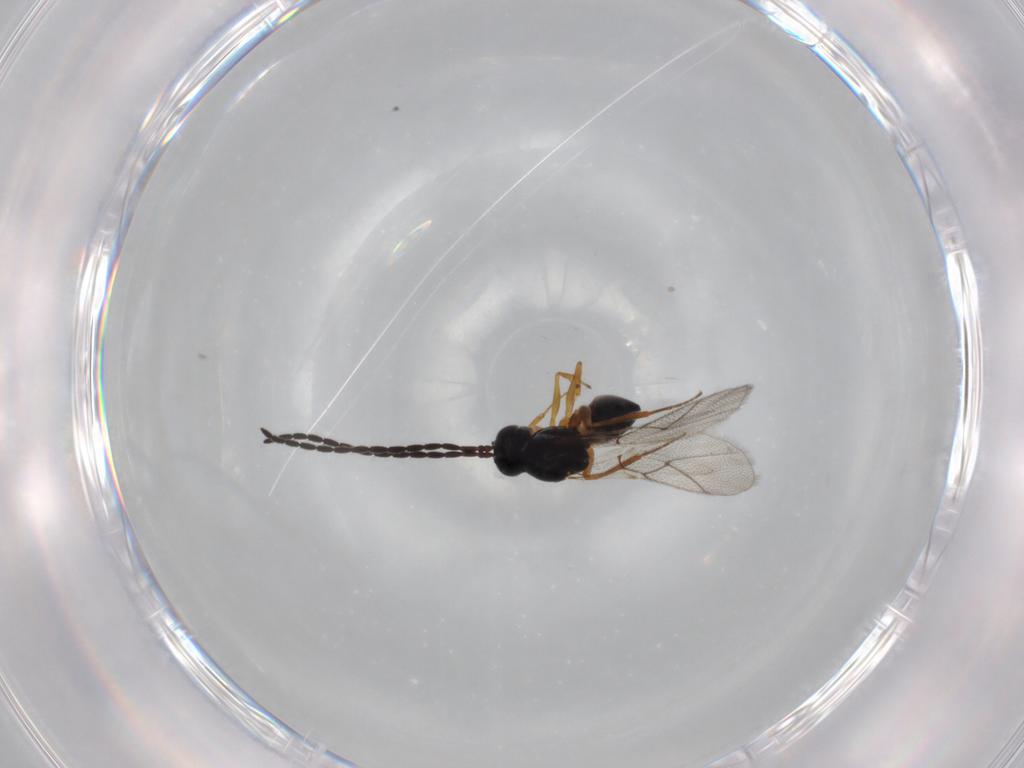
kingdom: Animalia
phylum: Arthropoda
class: Insecta
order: Hymenoptera
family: Figitidae
